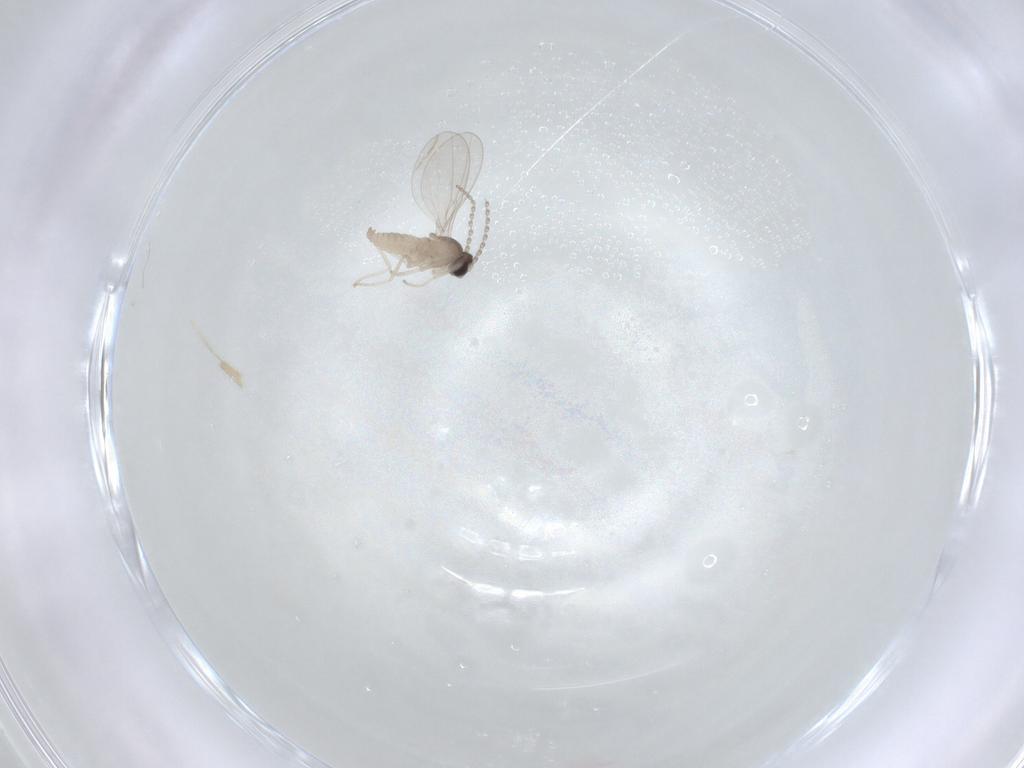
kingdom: Animalia
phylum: Arthropoda
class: Insecta
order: Diptera
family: Cecidomyiidae
